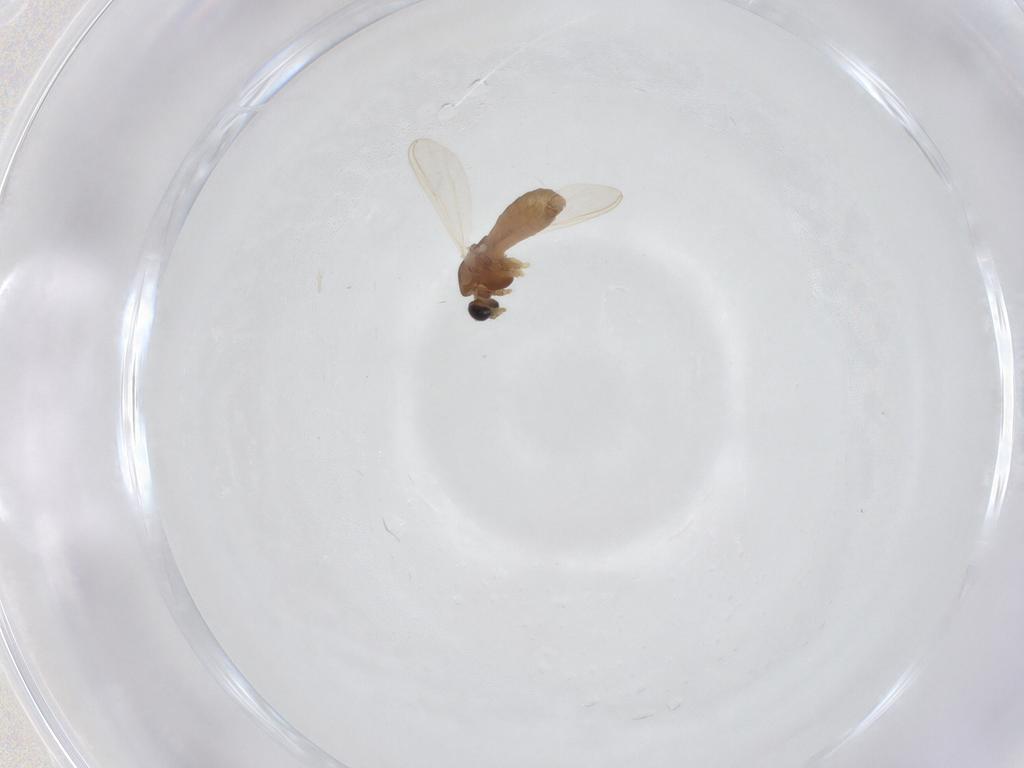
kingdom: Animalia
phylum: Arthropoda
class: Insecta
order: Diptera
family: Chironomidae
